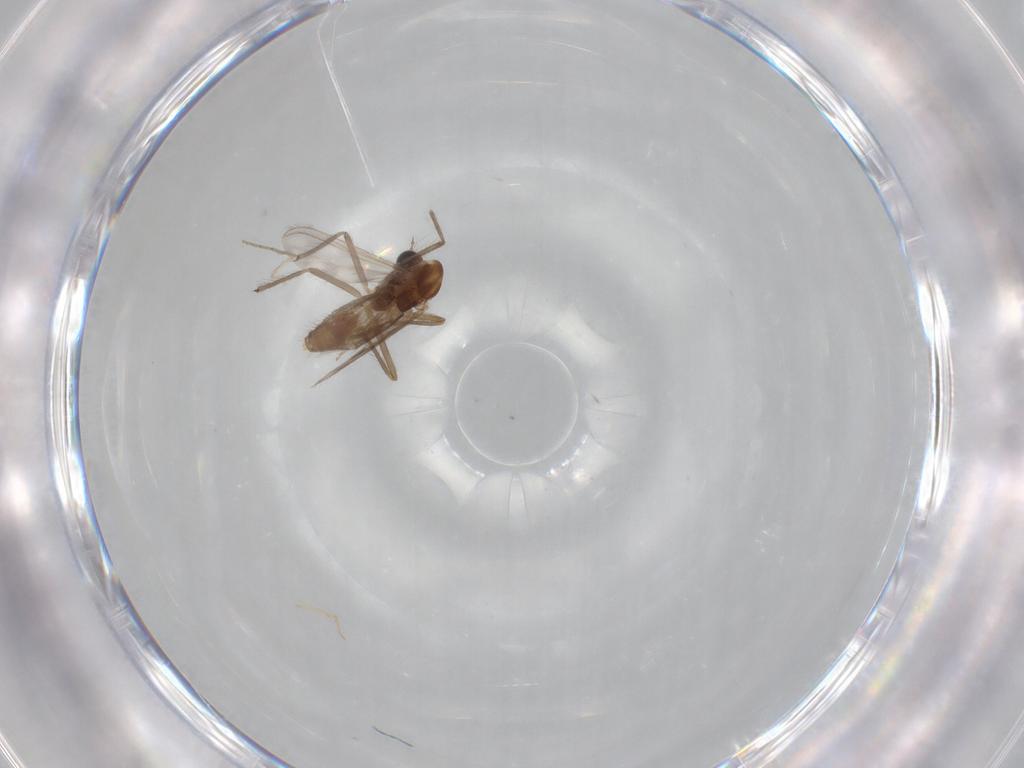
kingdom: Animalia
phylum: Arthropoda
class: Insecta
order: Diptera
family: Chironomidae
